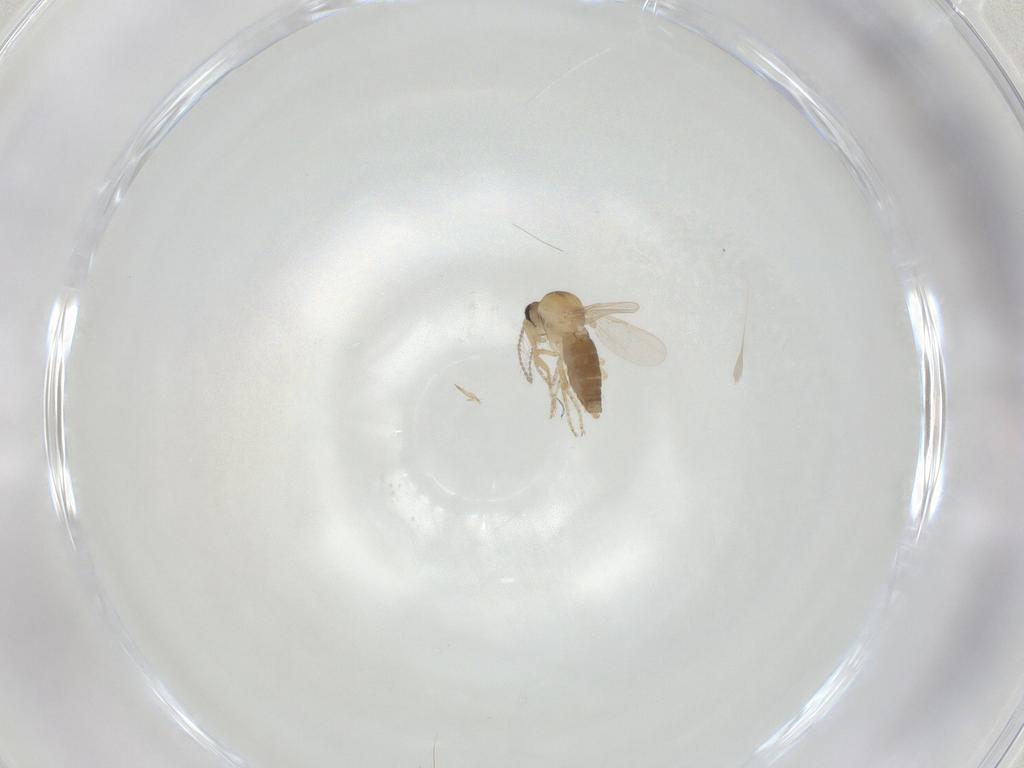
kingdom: Animalia
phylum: Arthropoda
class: Insecta
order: Diptera
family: Ceratopogonidae
